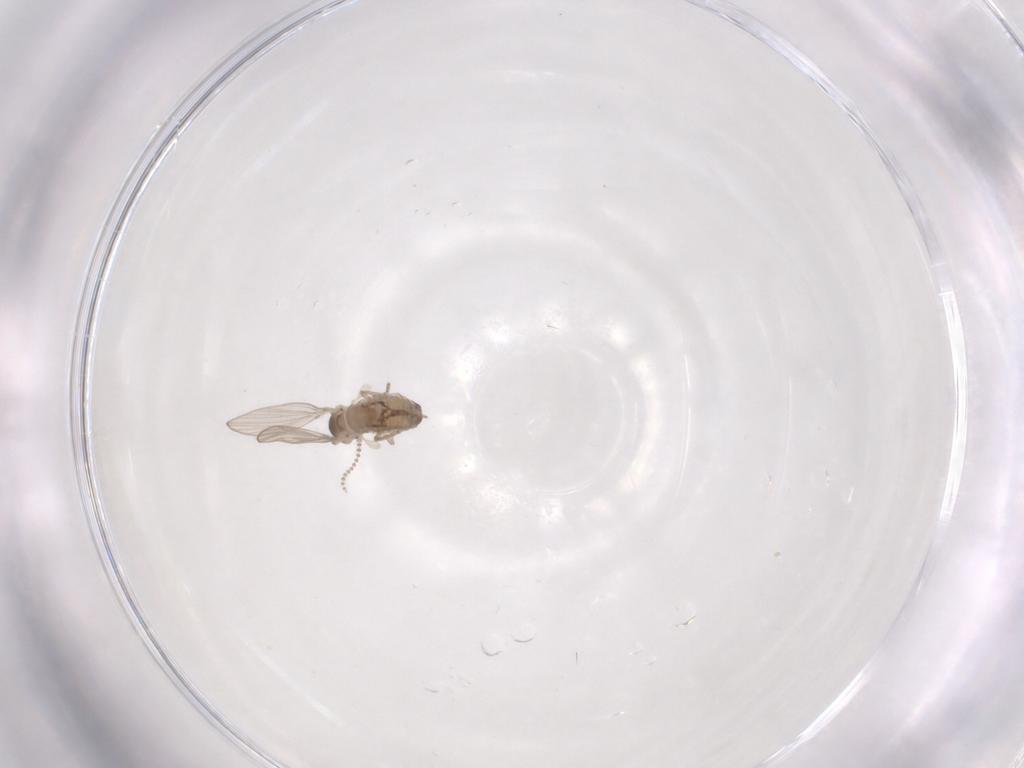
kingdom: Animalia
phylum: Arthropoda
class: Insecta
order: Diptera
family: Psychodidae
